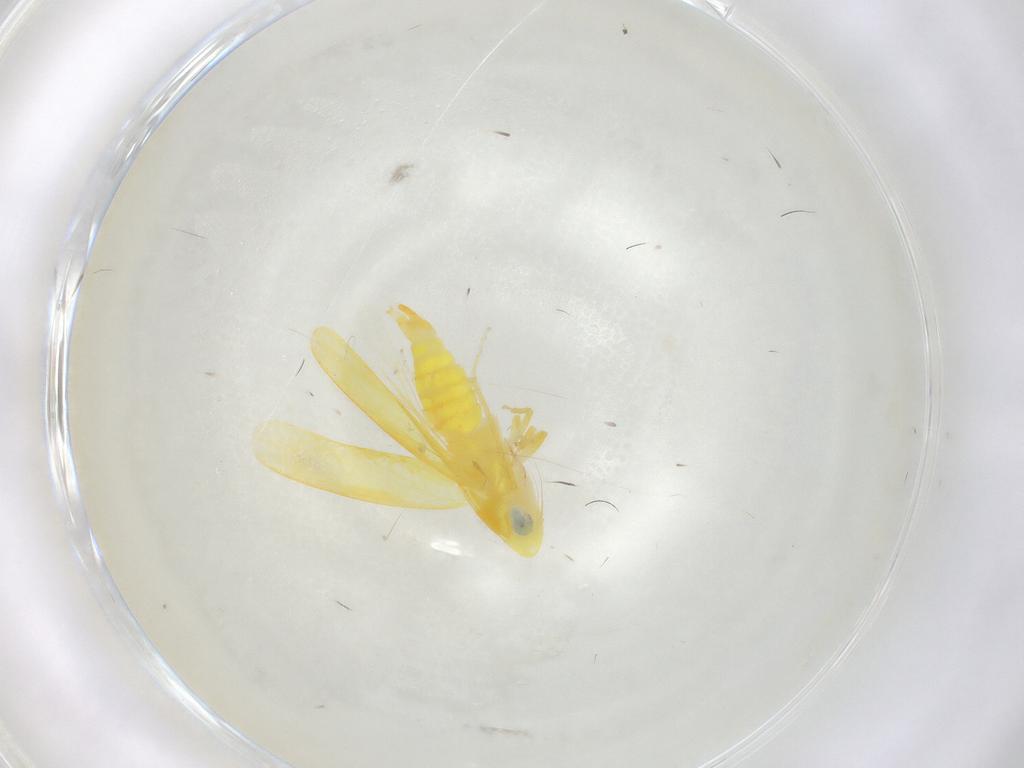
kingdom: Animalia
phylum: Arthropoda
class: Insecta
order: Hemiptera
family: Cicadellidae
